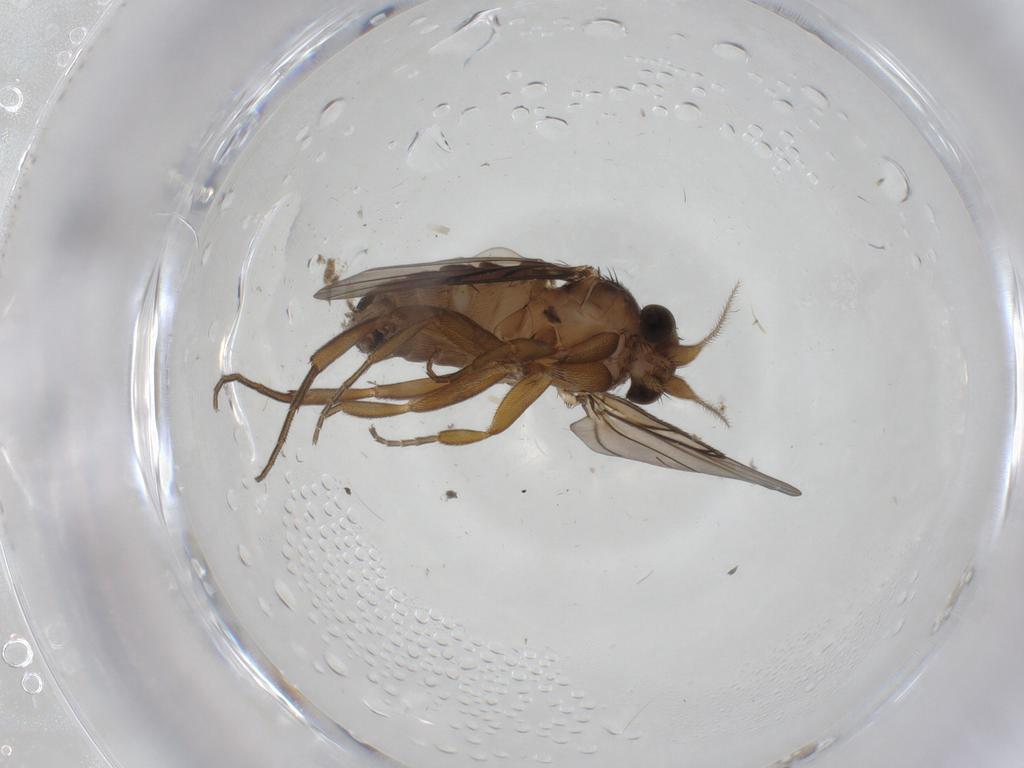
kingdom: Animalia
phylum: Arthropoda
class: Insecta
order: Diptera
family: Phoridae
